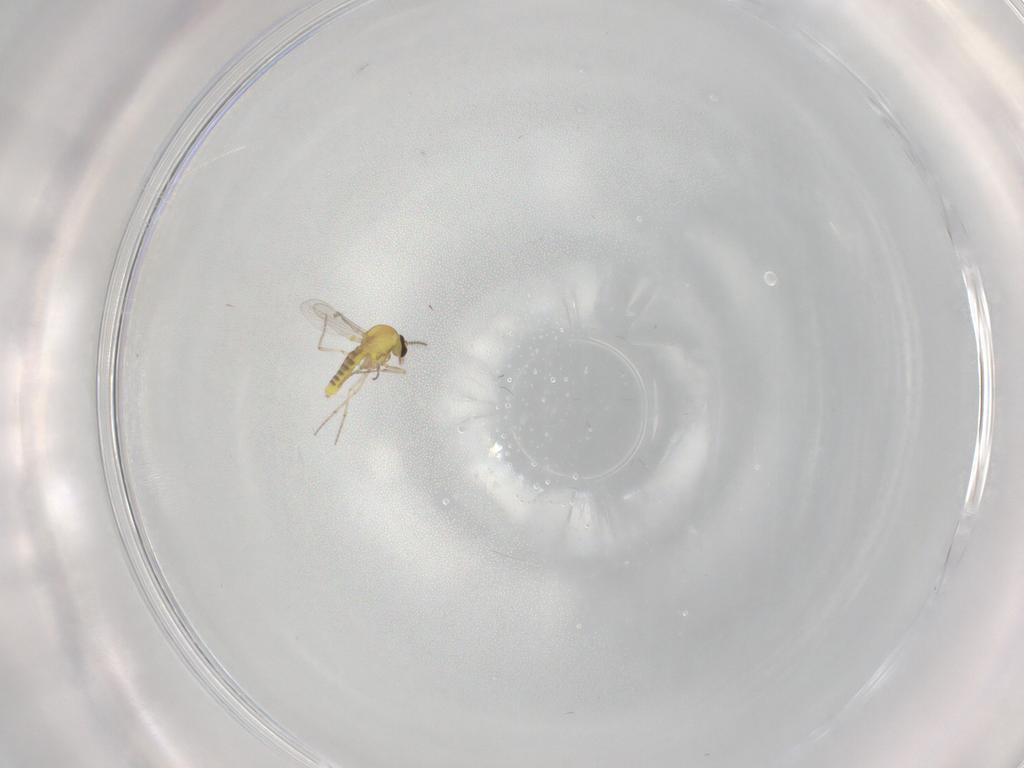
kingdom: Animalia
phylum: Arthropoda
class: Insecta
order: Diptera
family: Ceratopogonidae
